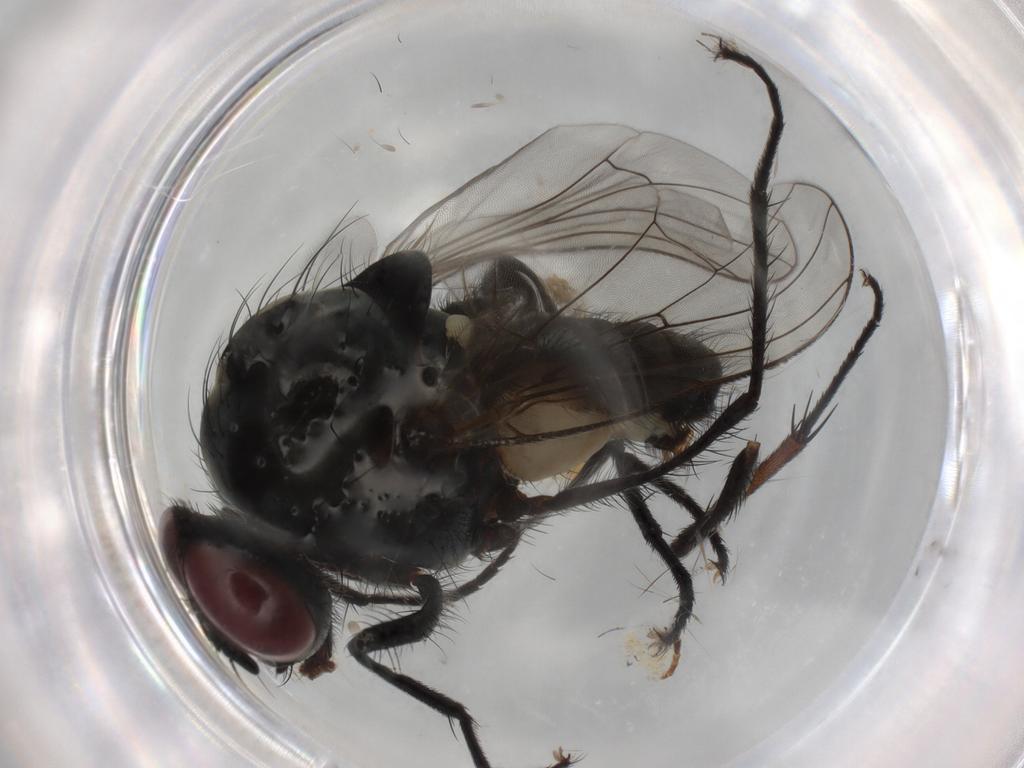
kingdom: Animalia
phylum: Arthropoda
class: Insecta
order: Diptera
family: Anthomyiidae
